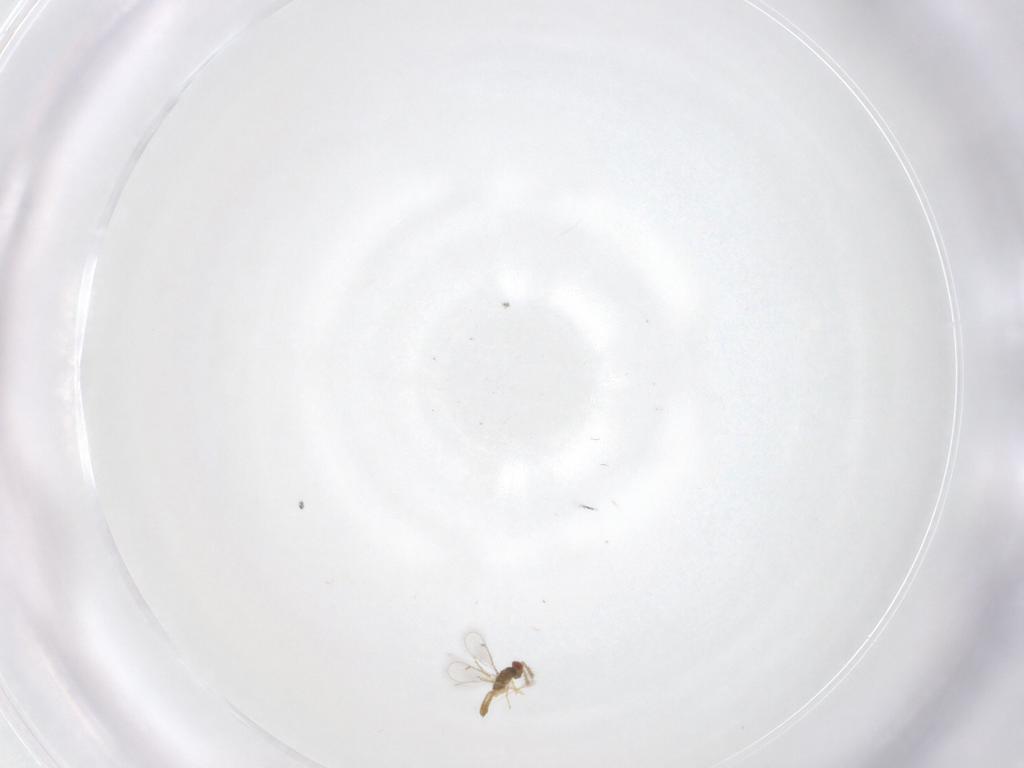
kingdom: Animalia
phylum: Arthropoda
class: Insecta
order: Hymenoptera
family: Eulophidae
